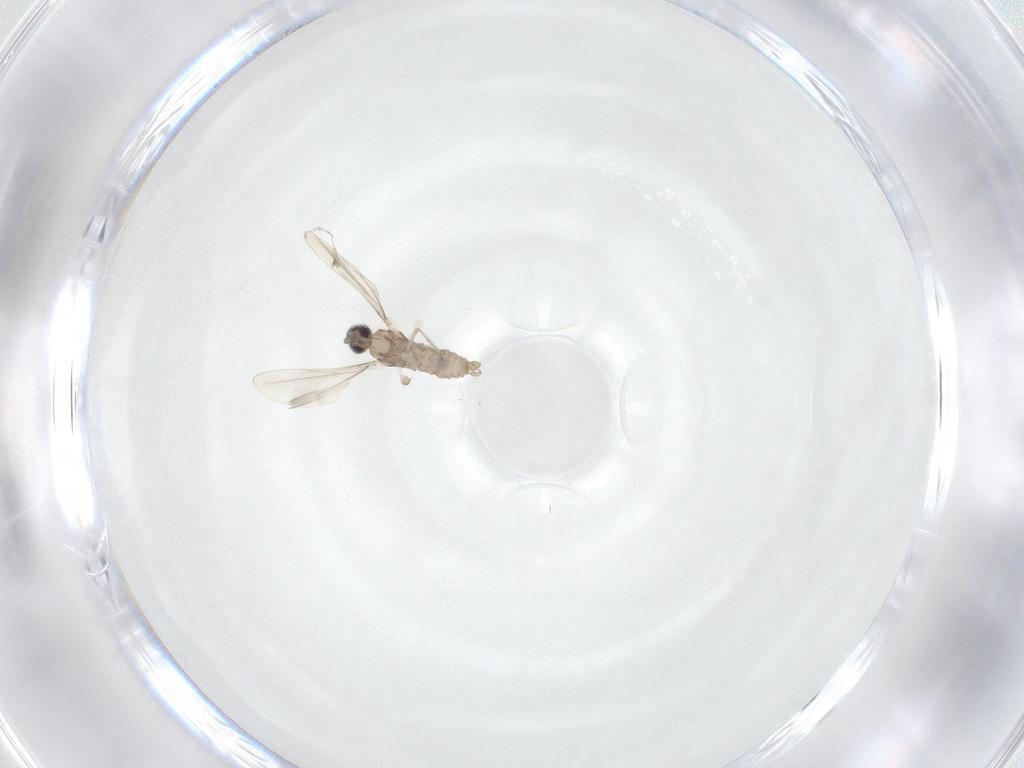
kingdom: Animalia
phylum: Arthropoda
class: Insecta
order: Diptera
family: Cecidomyiidae
